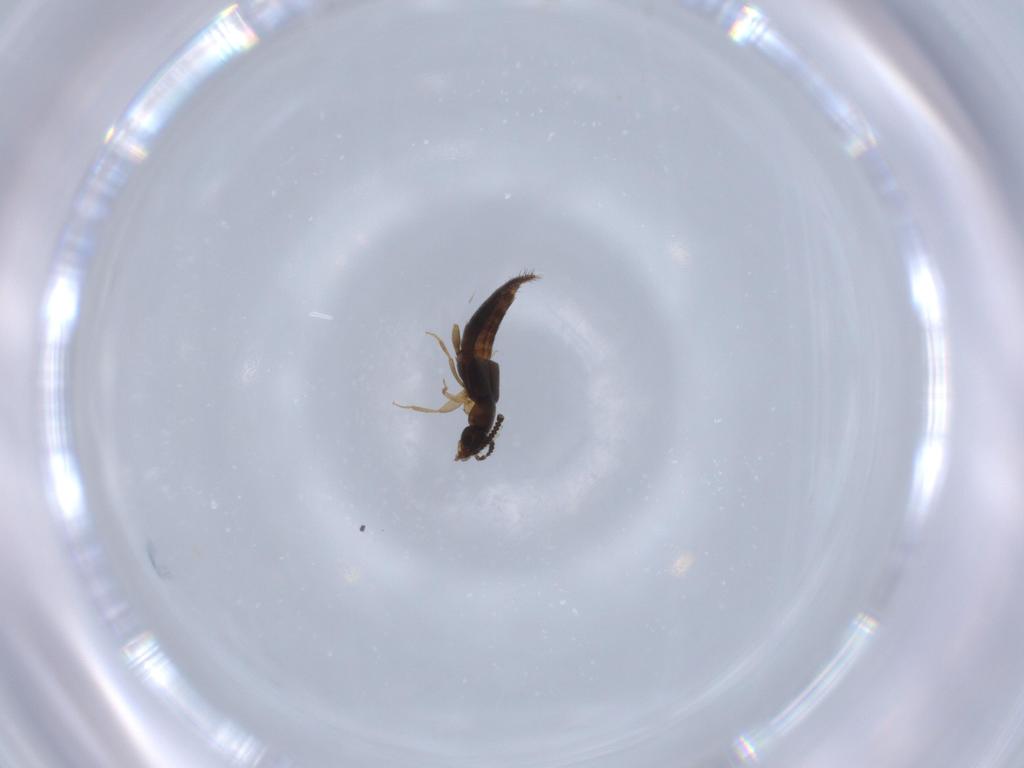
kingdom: Animalia
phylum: Arthropoda
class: Insecta
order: Coleoptera
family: Staphylinidae
